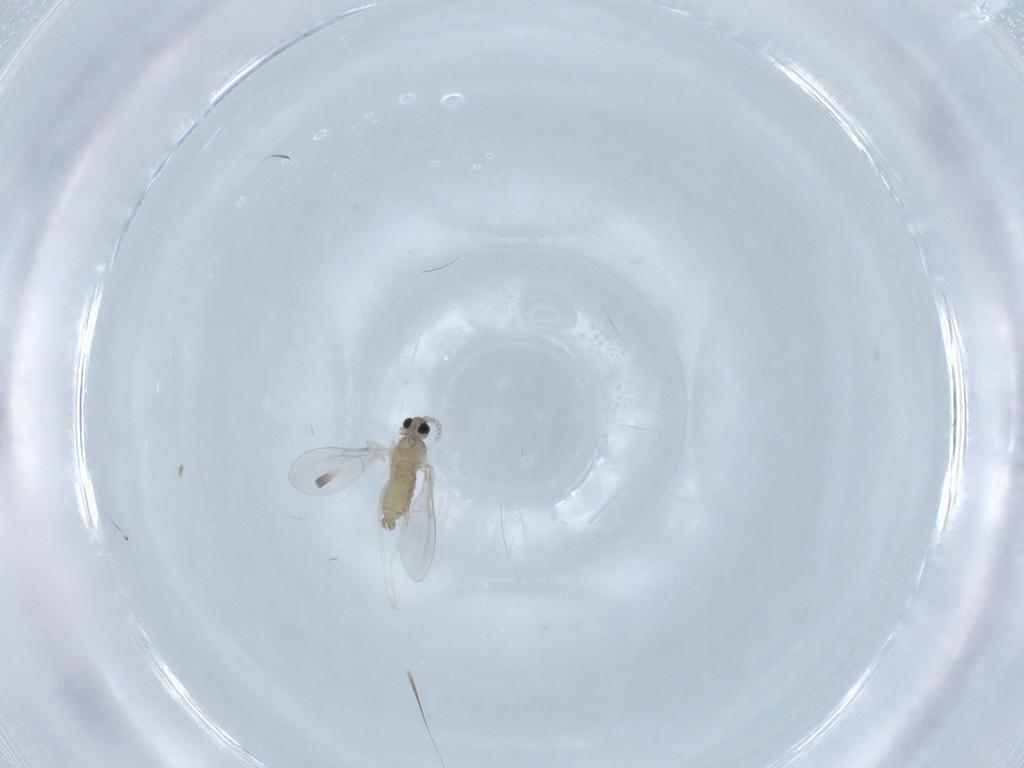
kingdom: Animalia
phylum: Arthropoda
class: Insecta
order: Diptera
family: Cecidomyiidae
